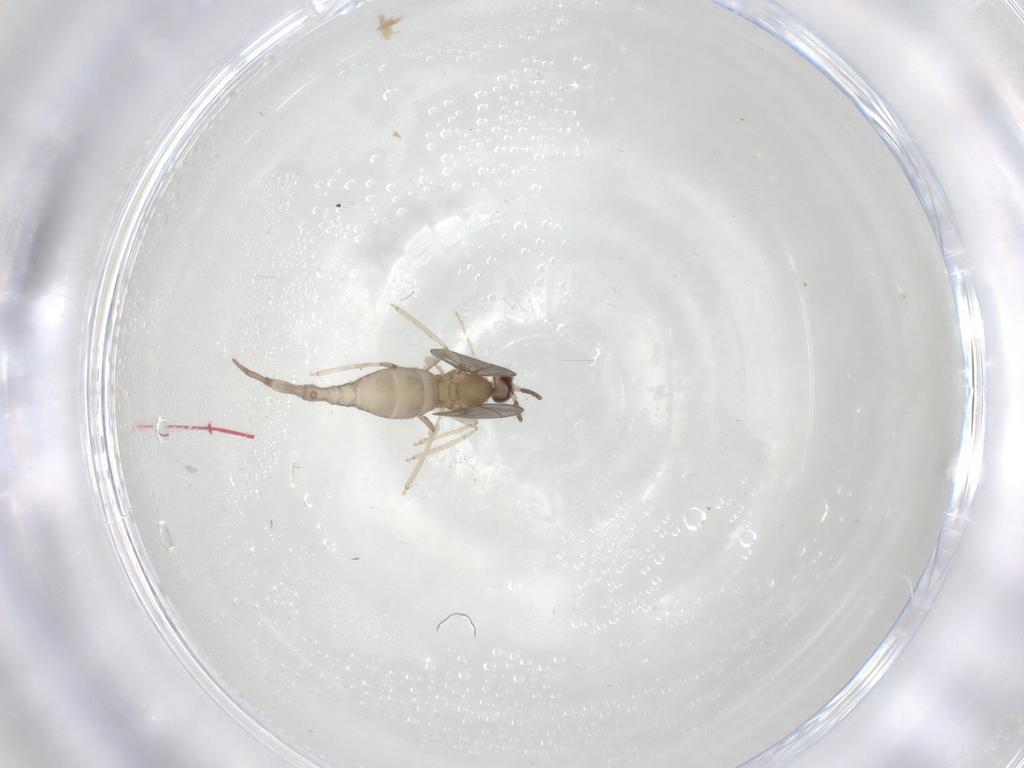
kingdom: Animalia
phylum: Arthropoda
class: Insecta
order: Diptera
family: Cecidomyiidae
